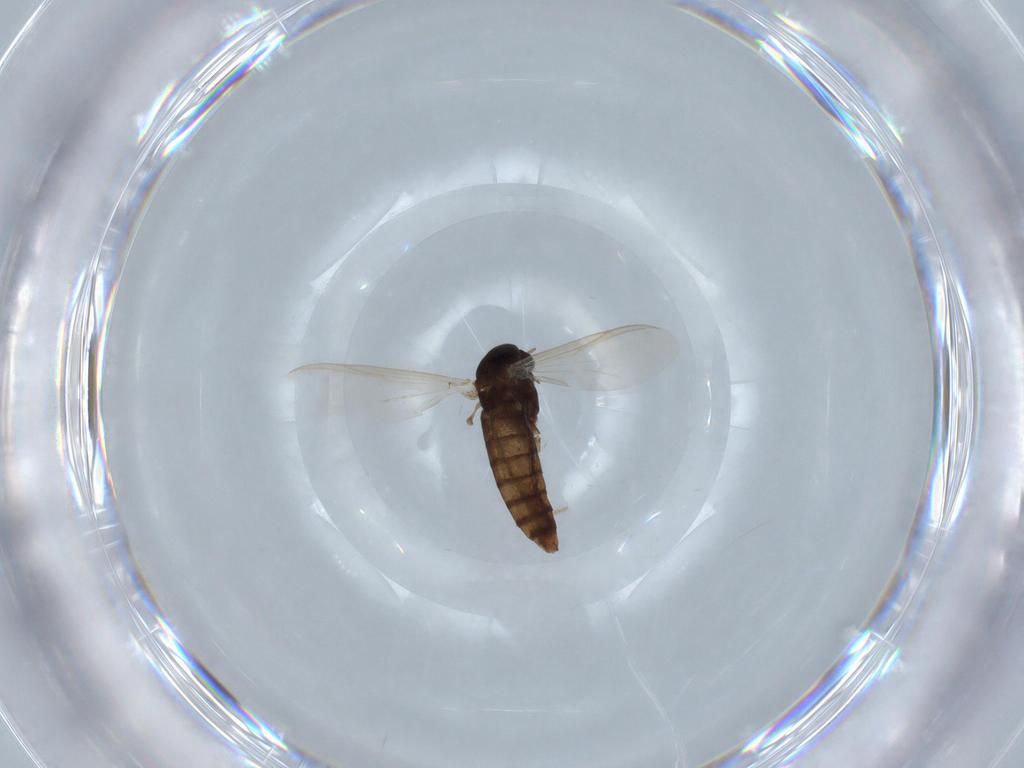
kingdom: Animalia
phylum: Arthropoda
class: Insecta
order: Diptera
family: Chironomidae
